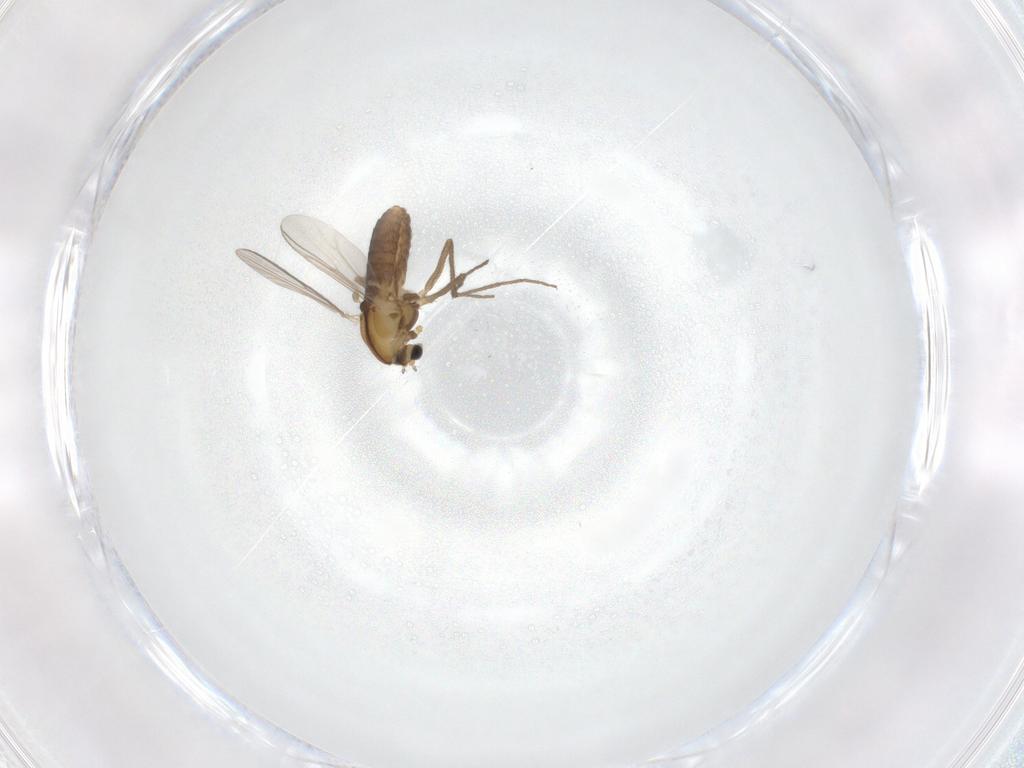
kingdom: Animalia
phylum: Arthropoda
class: Insecta
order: Diptera
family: Chironomidae
